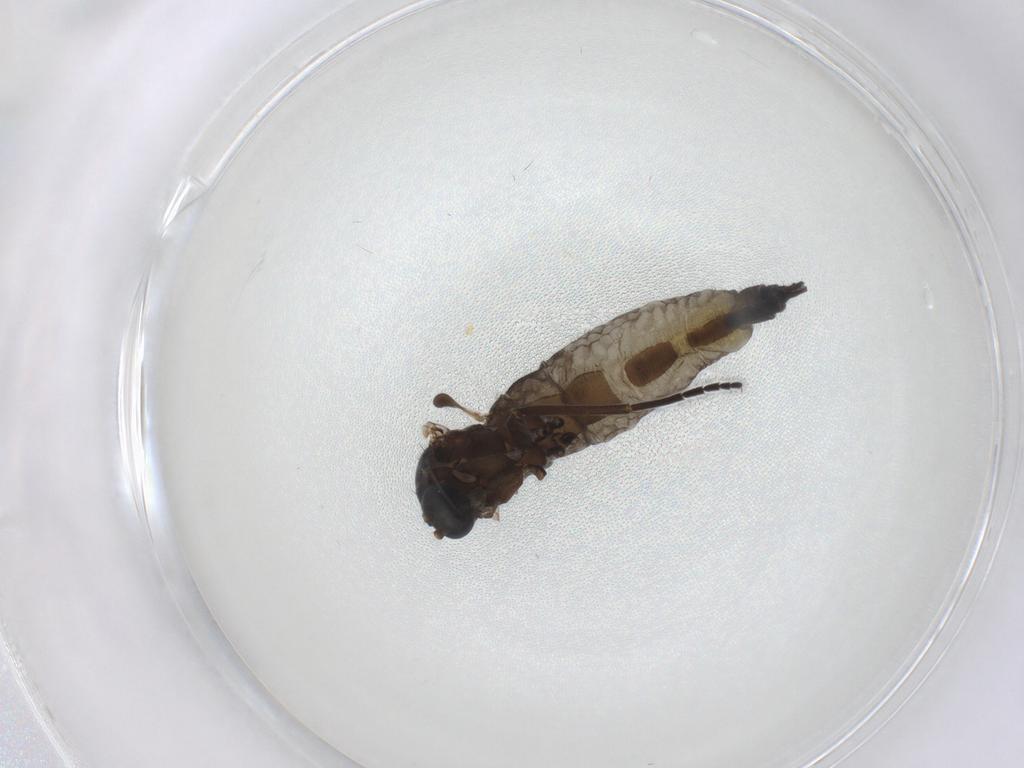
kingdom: Animalia
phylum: Arthropoda
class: Insecta
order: Diptera
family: Sciaridae
